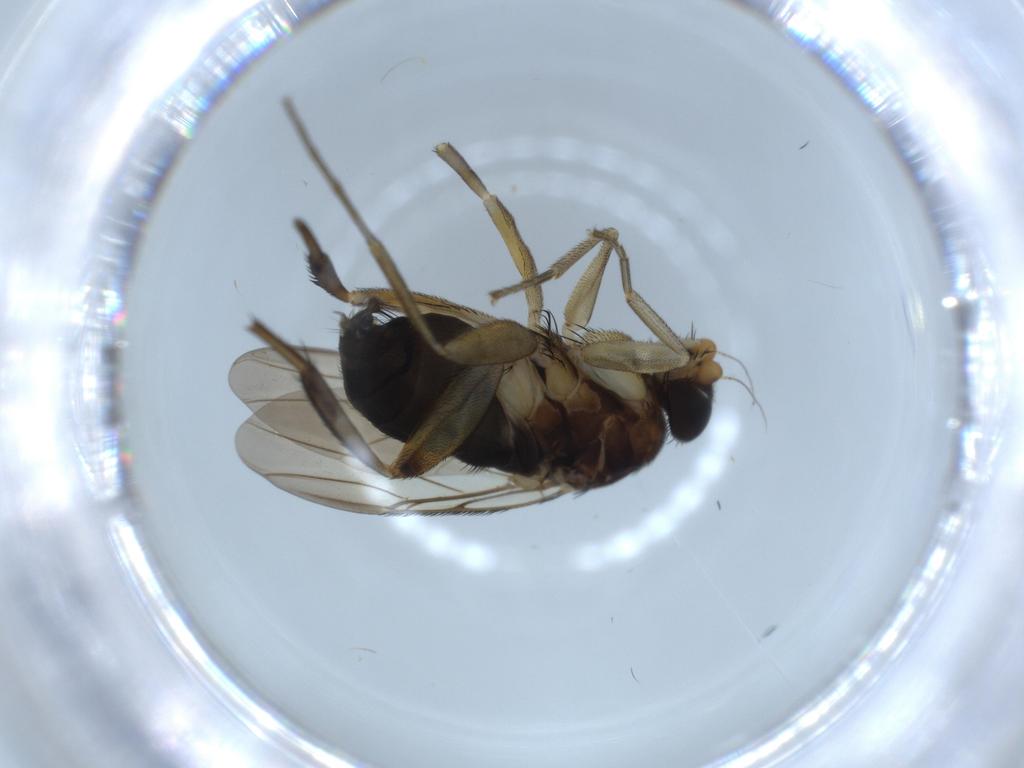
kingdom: Animalia
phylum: Arthropoda
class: Insecta
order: Diptera
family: Phoridae
